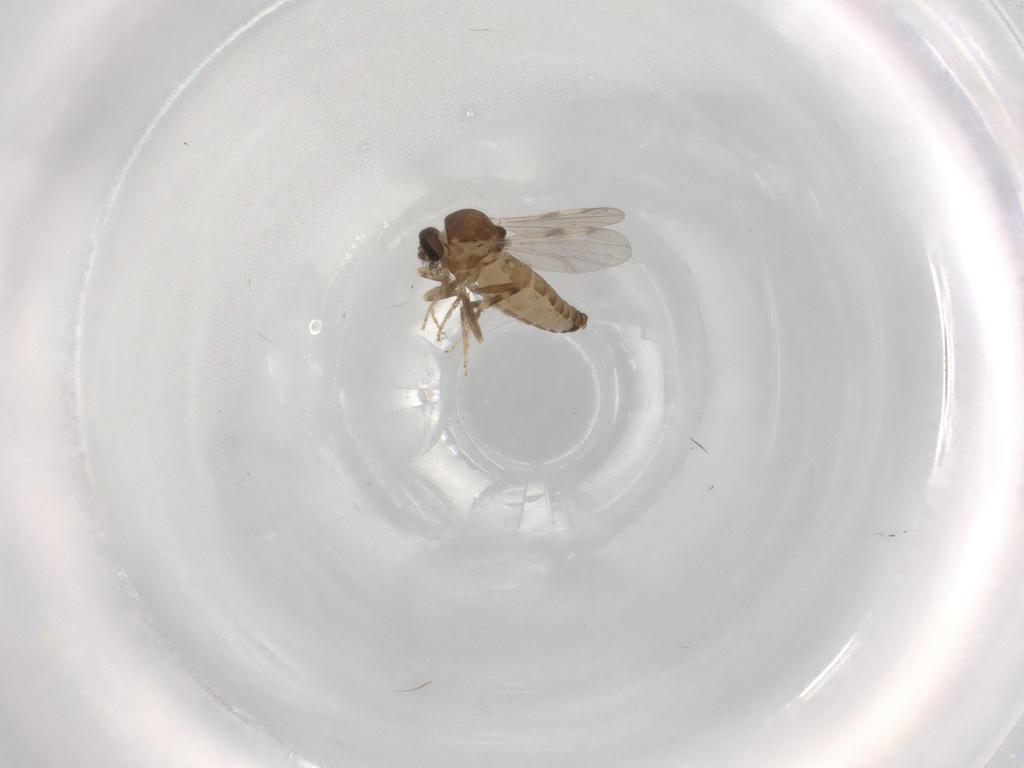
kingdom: Animalia
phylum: Arthropoda
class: Insecta
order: Diptera
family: Ceratopogonidae
